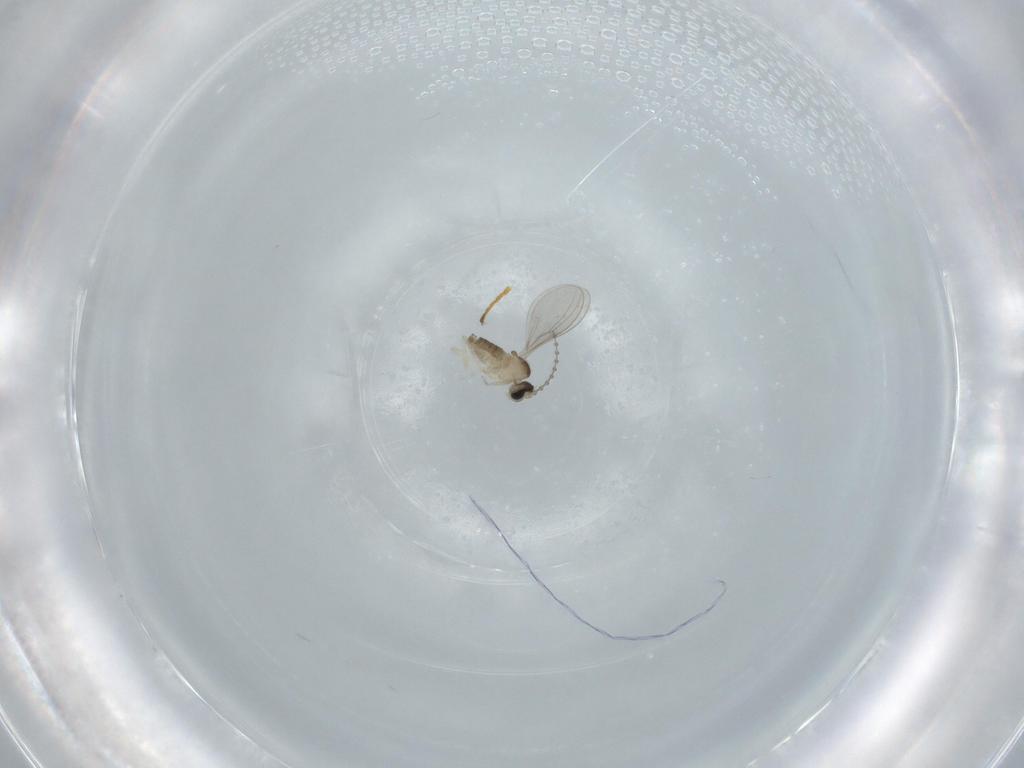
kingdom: Animalia
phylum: Arthropoda
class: Insecta
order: Diptera
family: Cecidomyiidae
